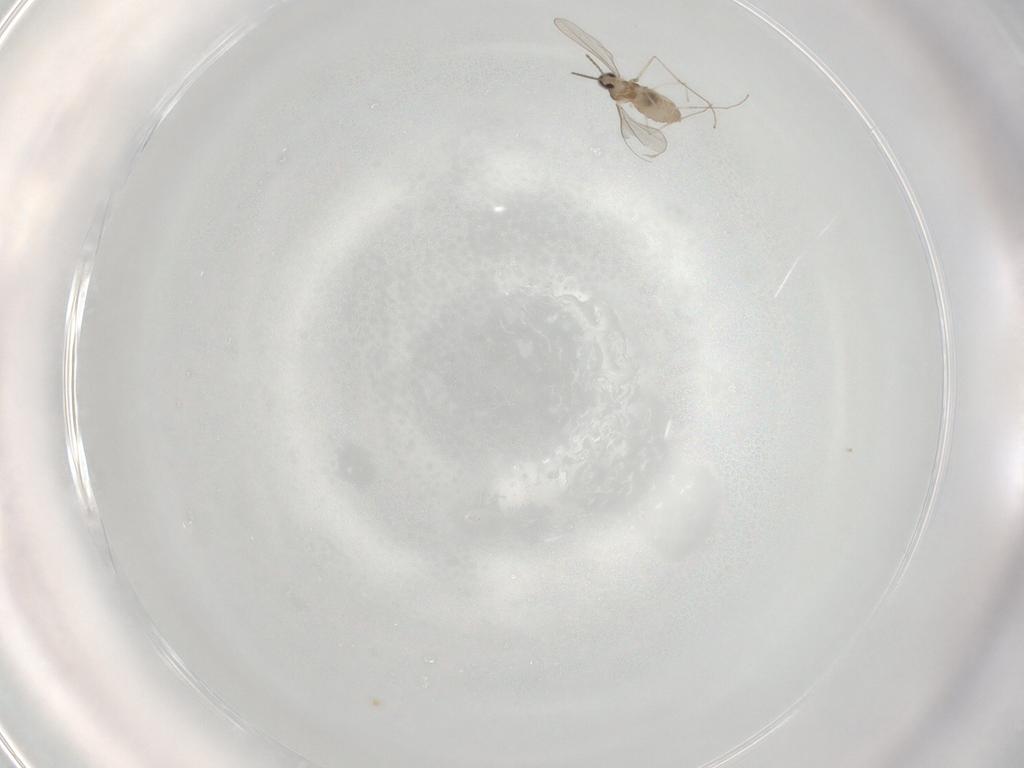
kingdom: Animalia
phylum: Arthropoda
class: Insecta
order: Diptera
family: Cecidomyiidae
